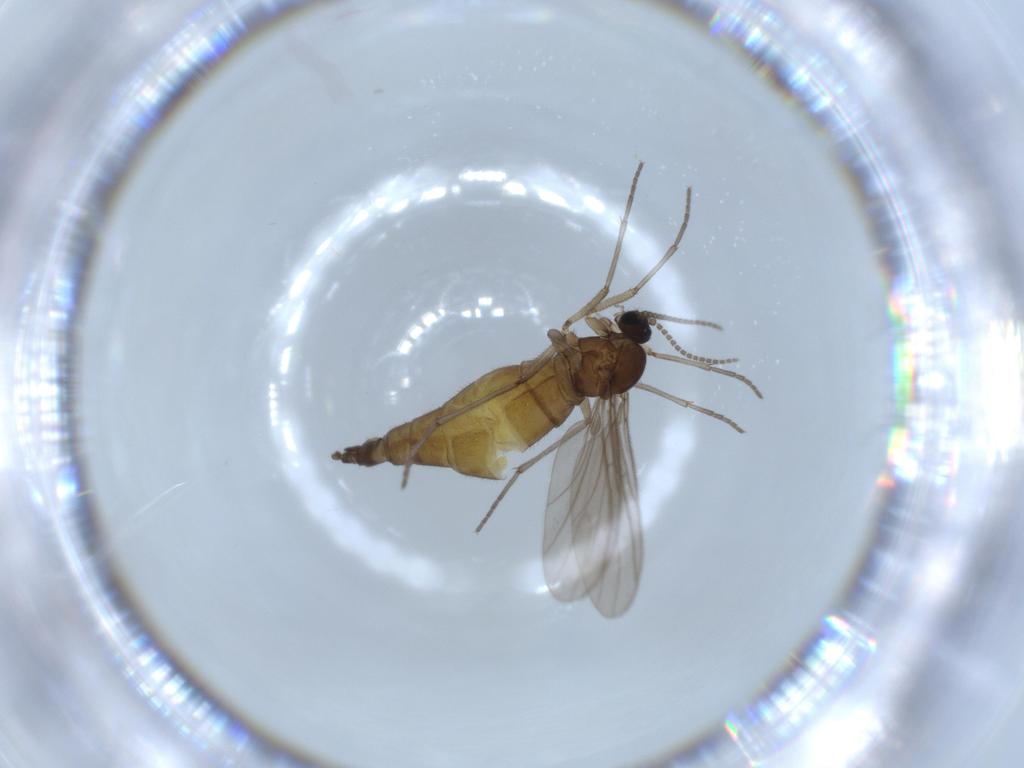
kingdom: Animalia
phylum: Arthropoda
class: Insecta
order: Diptera
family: Sciaridae
